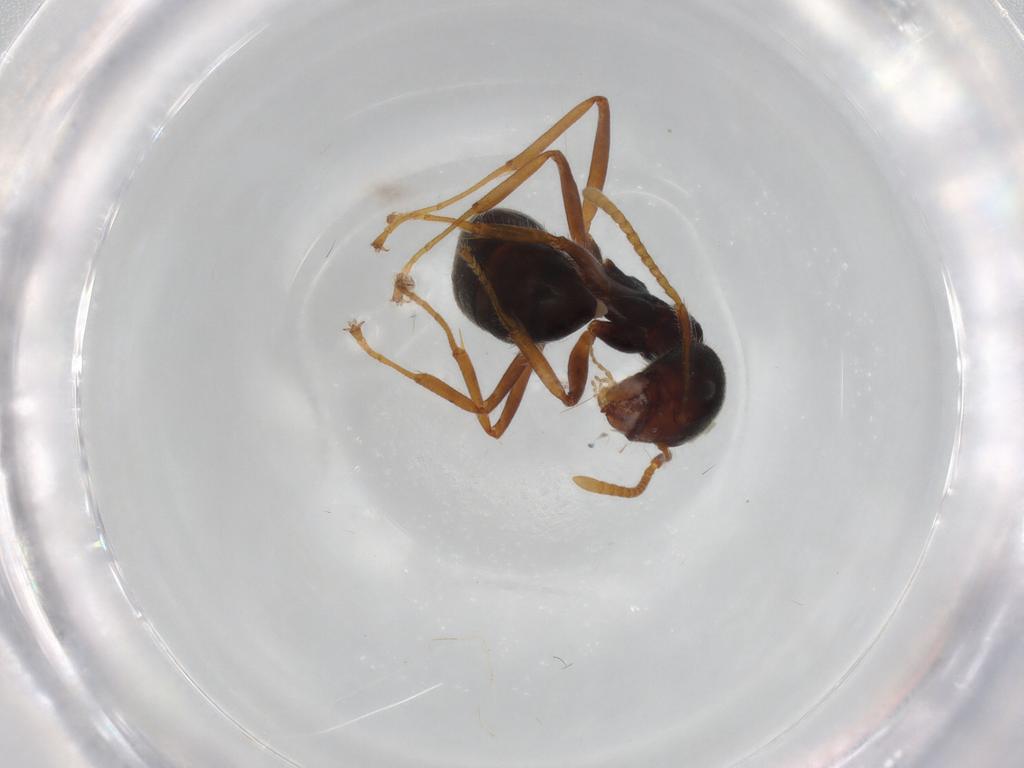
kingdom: Animalia
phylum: Arthropoda
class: Insecta
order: Hymenoptera
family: Formicidae
